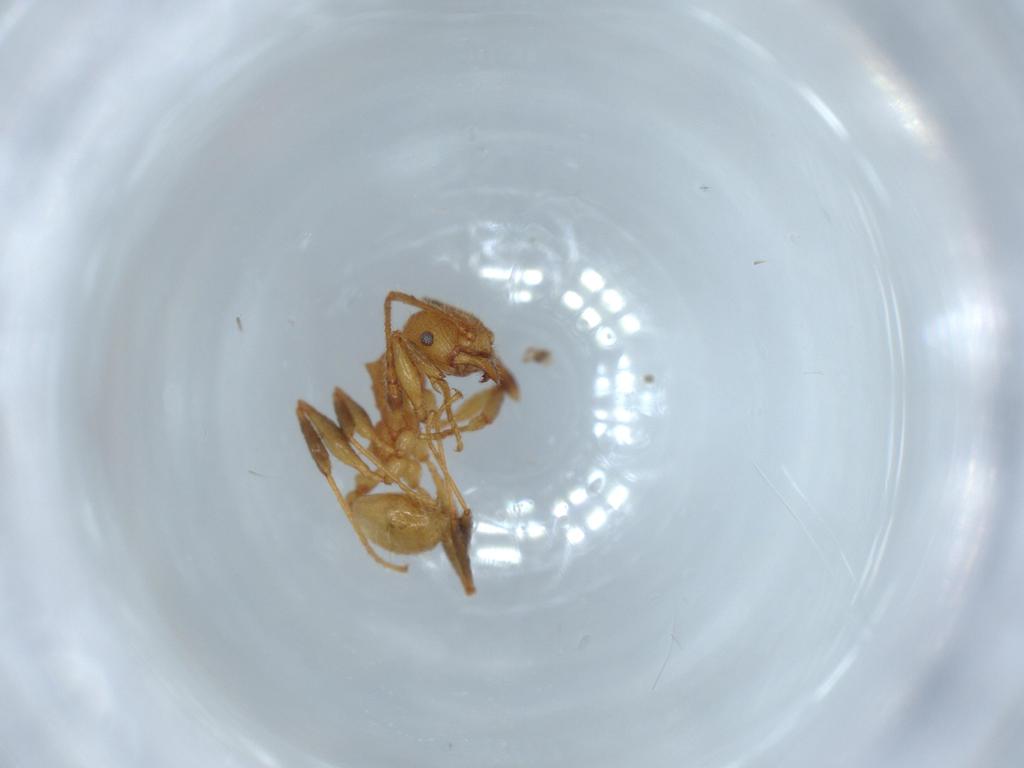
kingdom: Animalia
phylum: Arthropoda
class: Insecta
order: Hymenoptera
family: Formicidae
